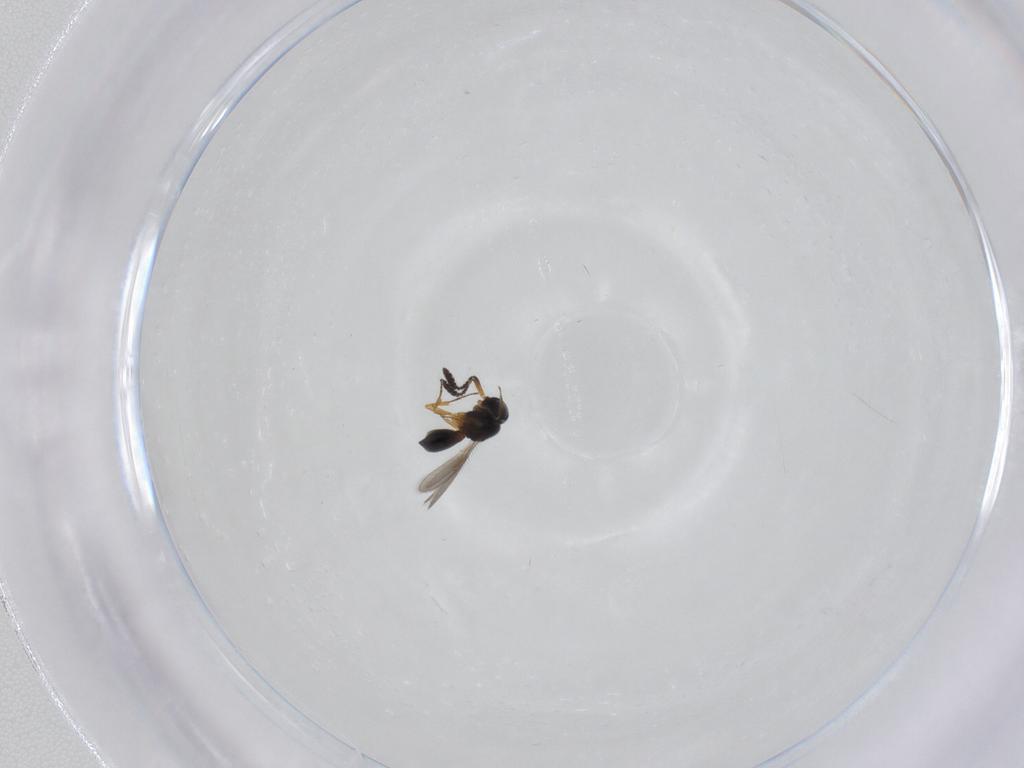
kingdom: Animalia
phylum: Arthropoda
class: Insecta
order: Hymenoptera
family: Scelionidae
